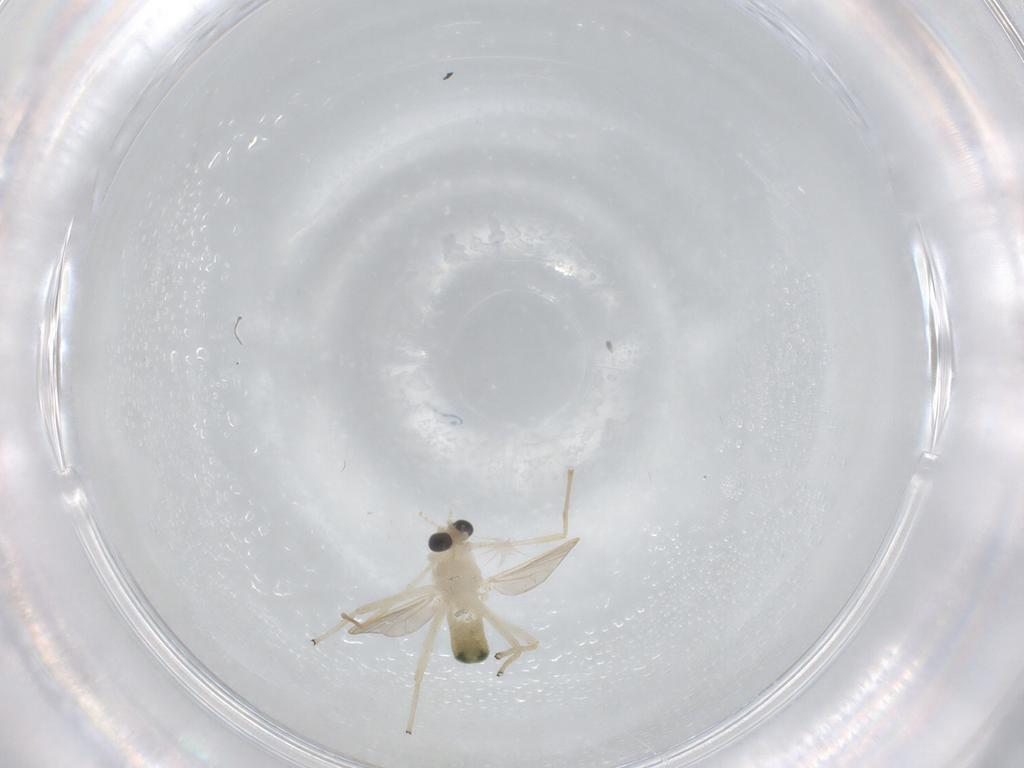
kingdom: Animalia
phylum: Arthropoda
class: Insecta
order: Diptera
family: Chironomidae
